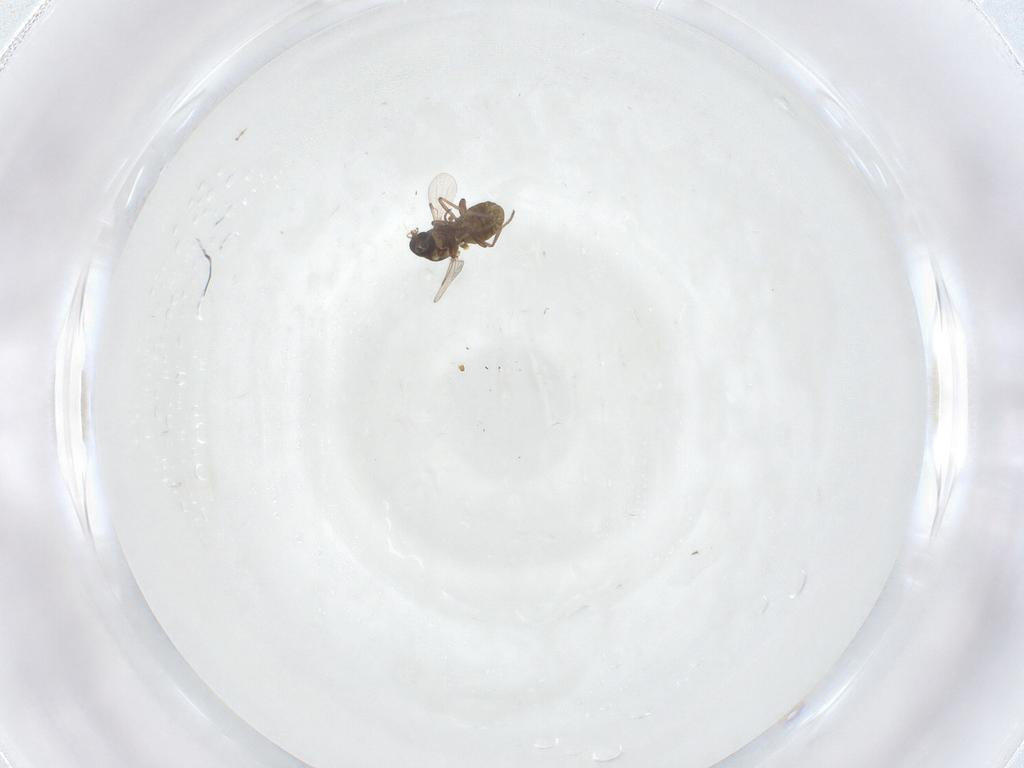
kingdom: Animalia
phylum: Arthropoda
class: Insecta
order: Diptera
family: Ceratopogonidae
